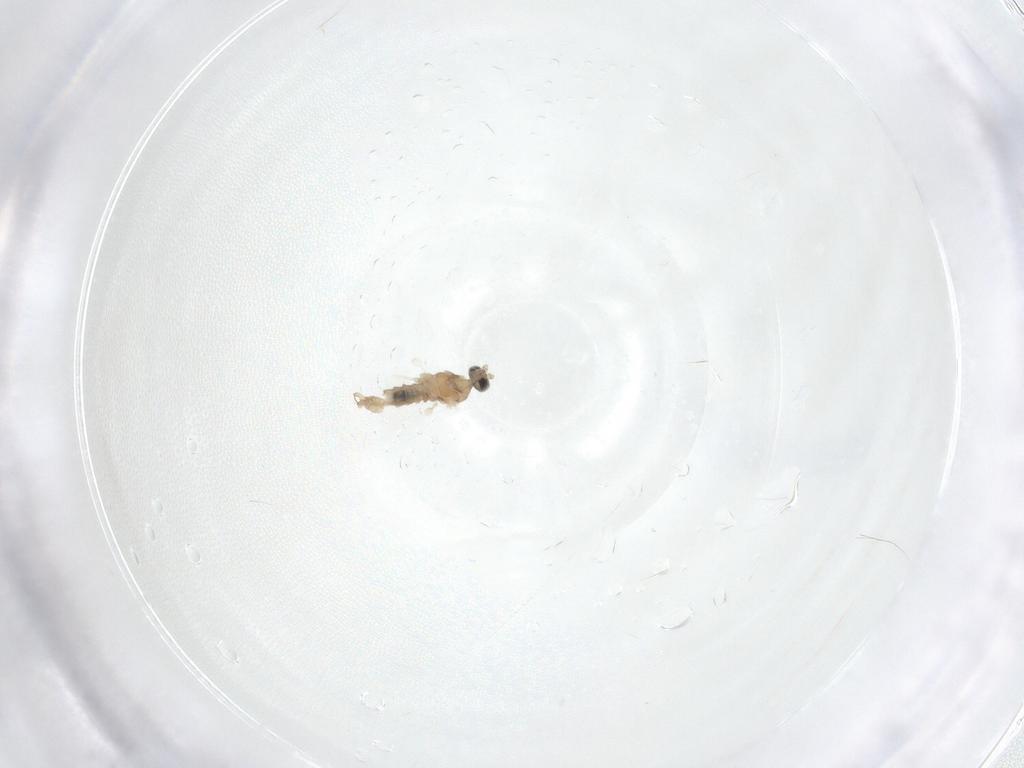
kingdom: Animalia
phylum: Arthropoda
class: Insecta
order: Diptera
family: Cecidomyiidae
